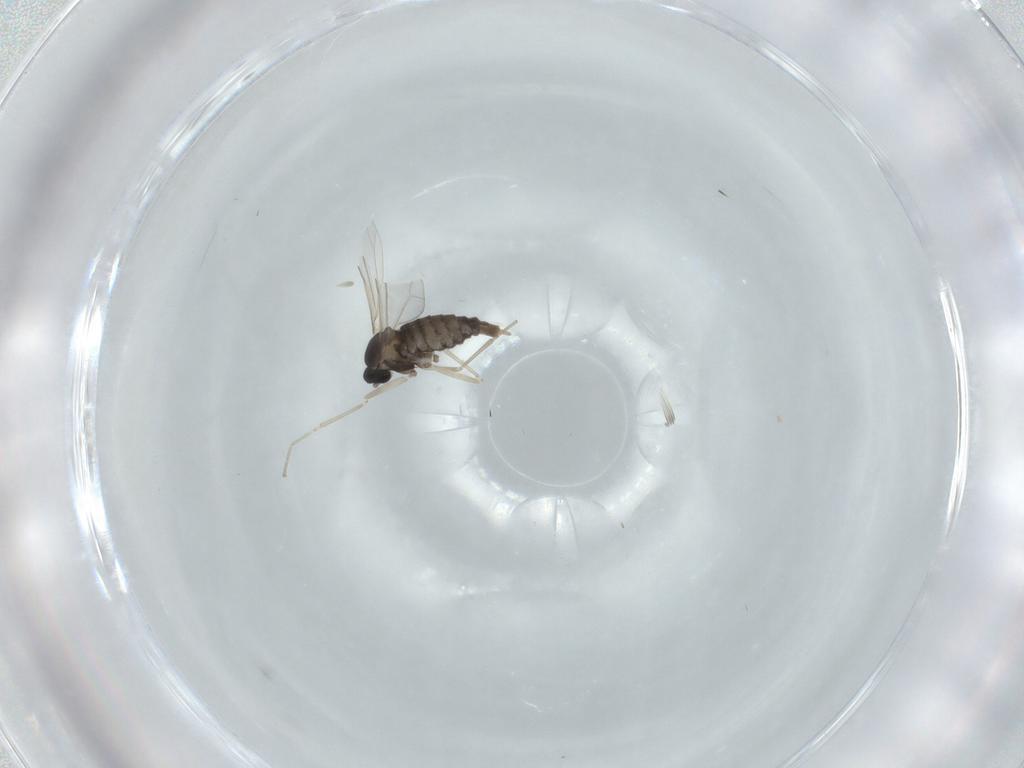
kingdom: Animalia
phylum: Arthropoda
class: Insecta
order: Diptera
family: Cecidomyiidae
